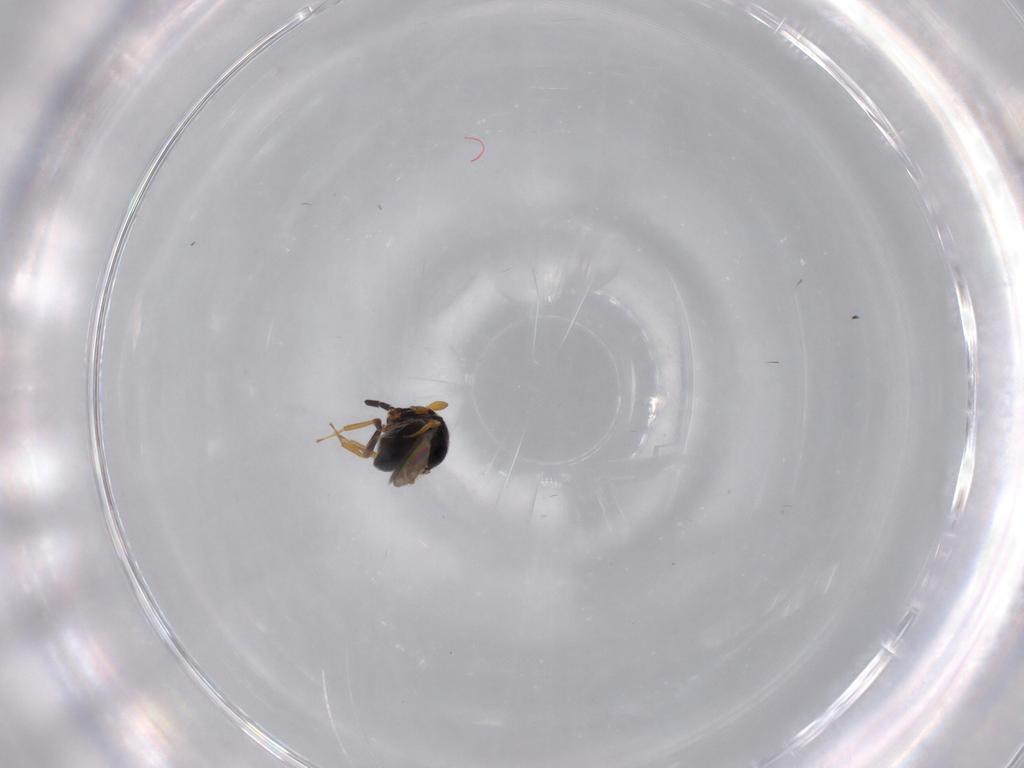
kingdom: Animalia
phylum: Arthropoda
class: Insecta
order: Hymenoptera
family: Scelionidae
